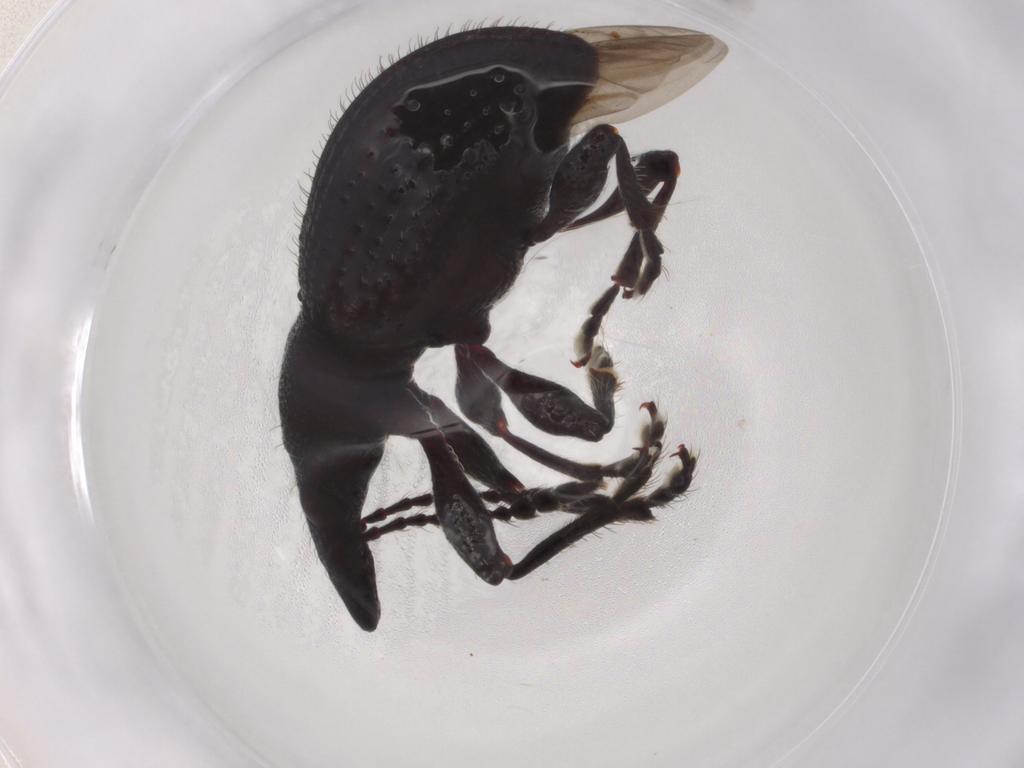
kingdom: Animalia
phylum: Arthropoda
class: Insecta
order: Coleoptera
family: Brentidae
